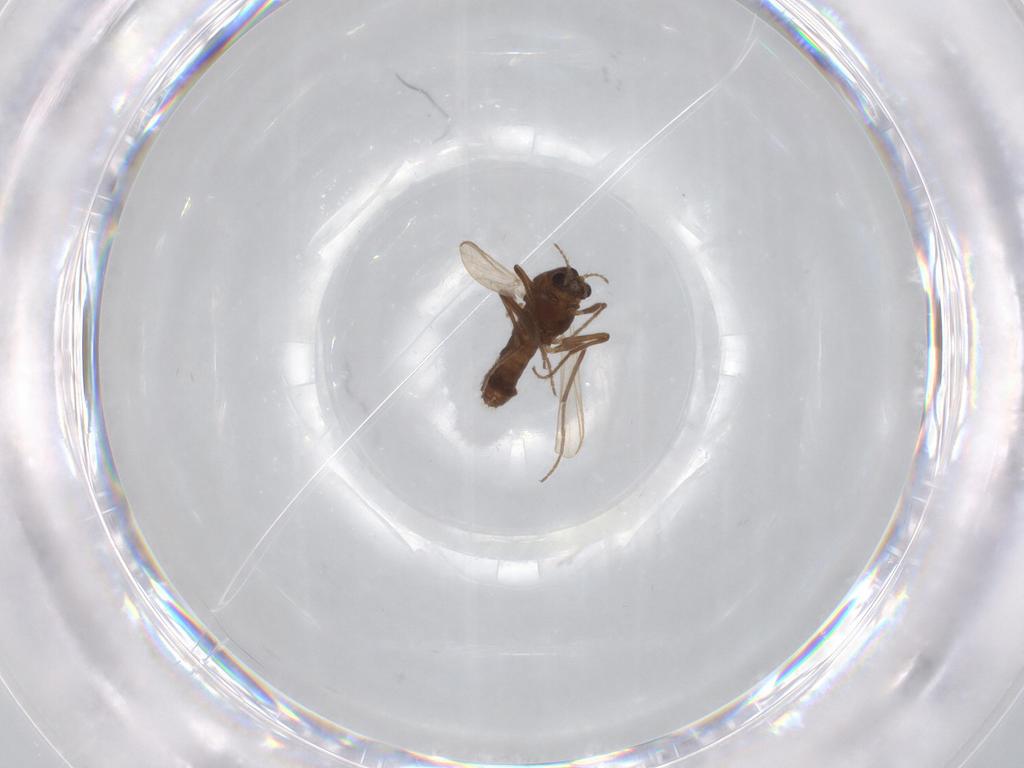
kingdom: Animalia
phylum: Arthropoda
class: Insecta
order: Diptera
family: Chironomidae
